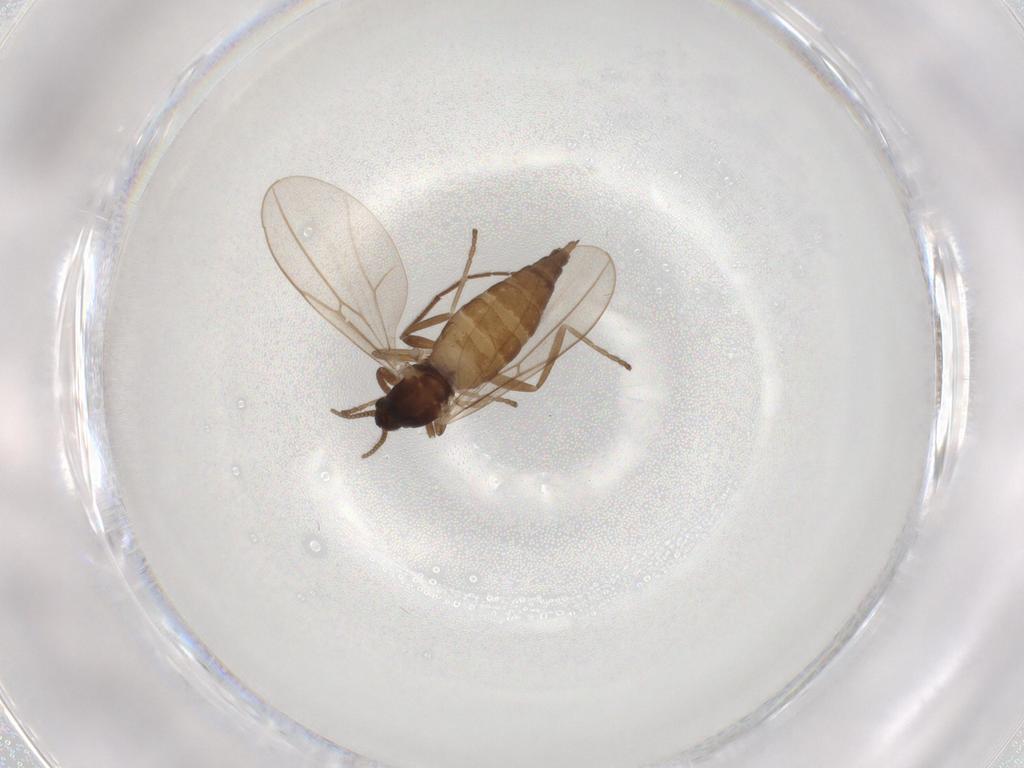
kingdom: Animalia
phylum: Arthropoda
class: Insecta
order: Diptera
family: Cecidomyiidae
